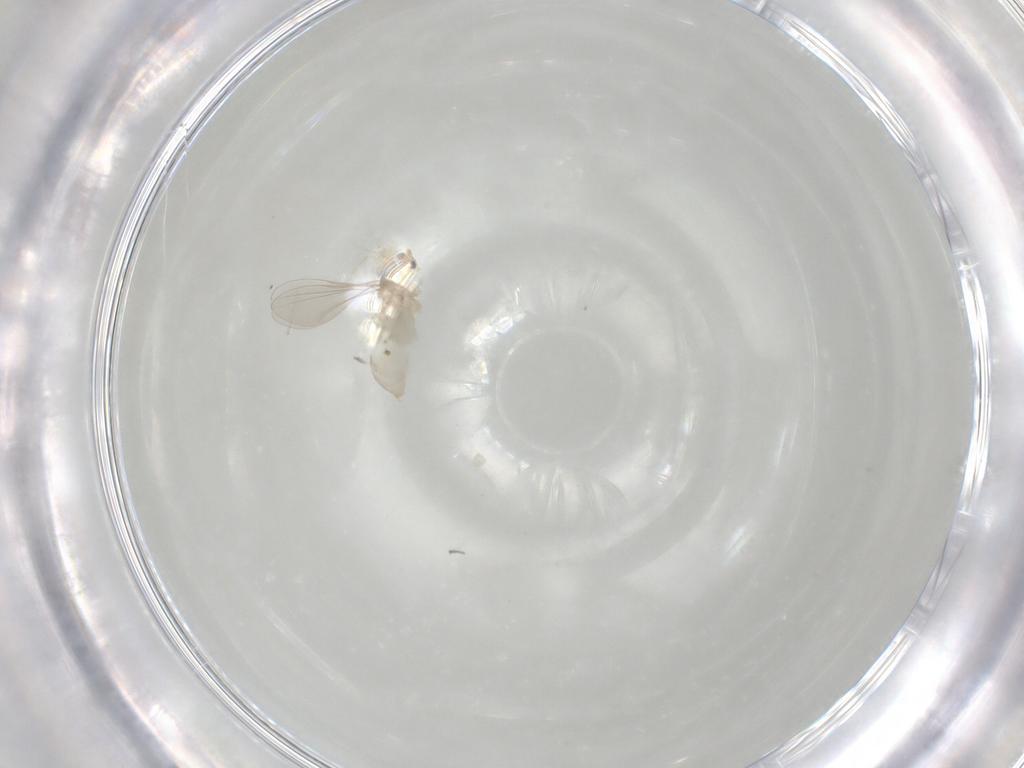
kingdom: Animalia
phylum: Arthropoda
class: Insecta
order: Diptera
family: Cecidomyiidae
